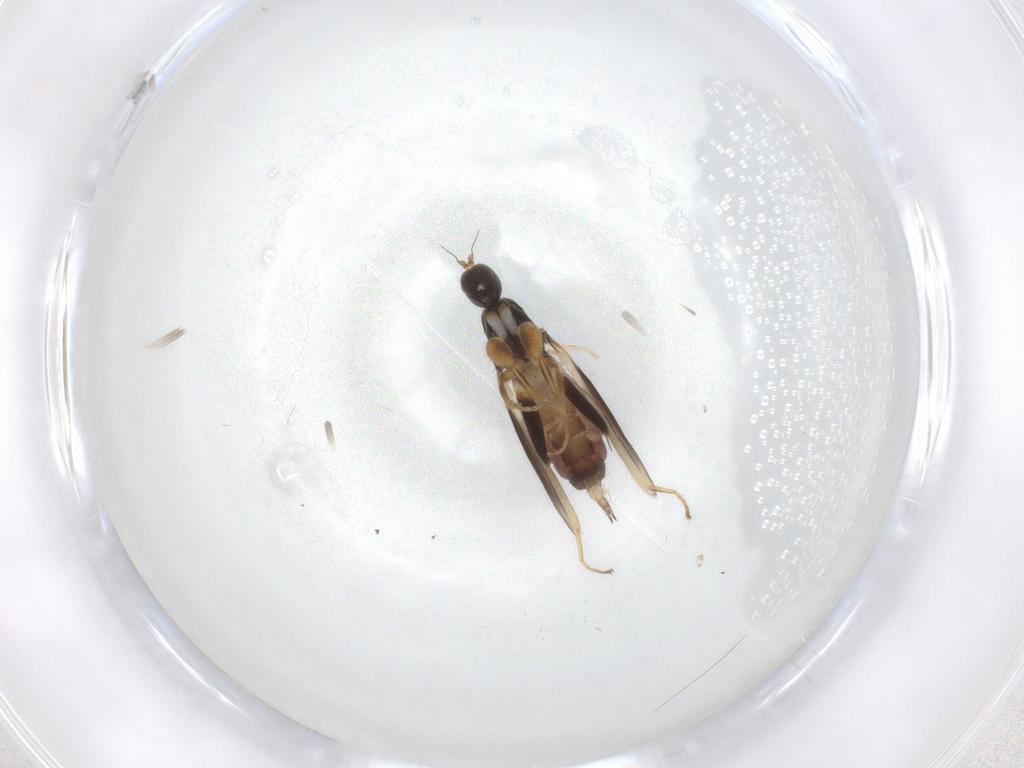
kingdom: Animalia
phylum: Arthropoda
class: Insecta
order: Diptera
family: Hybotidae
